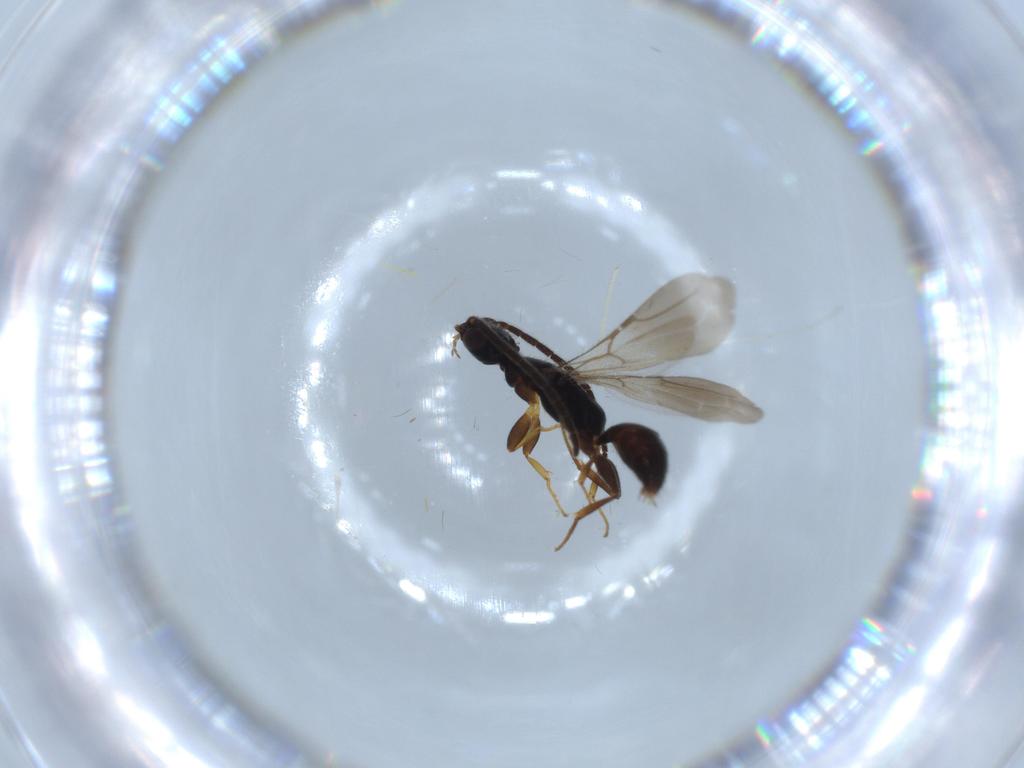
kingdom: Animalia
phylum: Arthropoda
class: Insecta
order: Hymenoptera
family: Bethylidae
